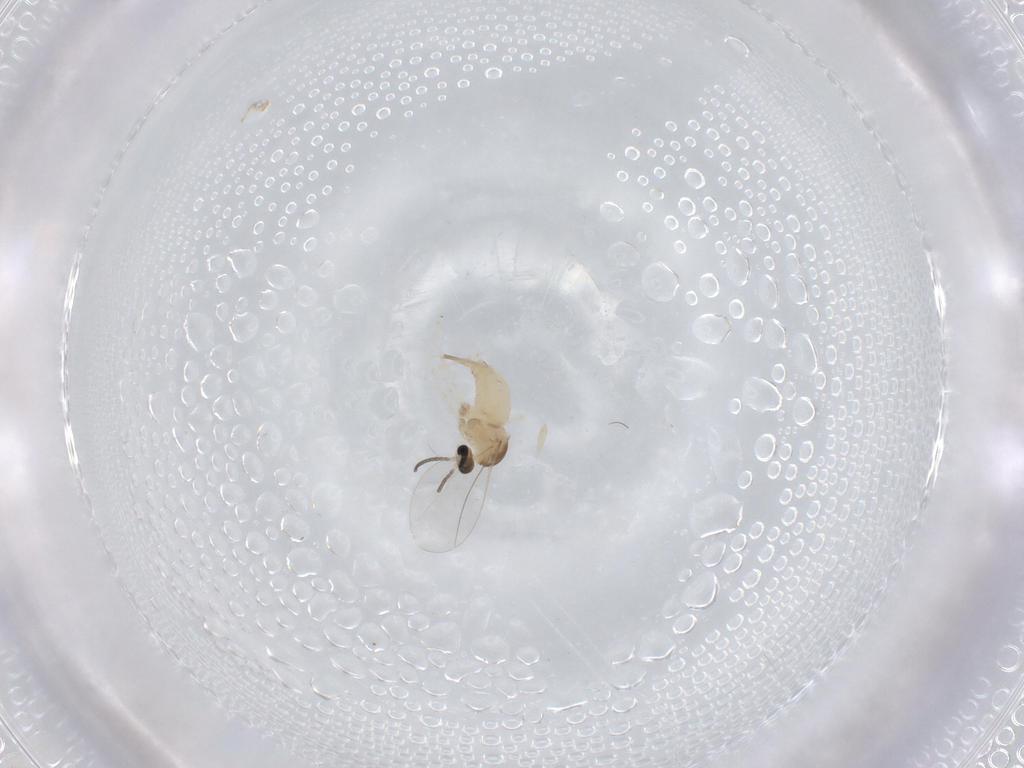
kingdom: Animalia
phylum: Arthropoda
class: Insecta
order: Diptera
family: Cecidomyiidae
